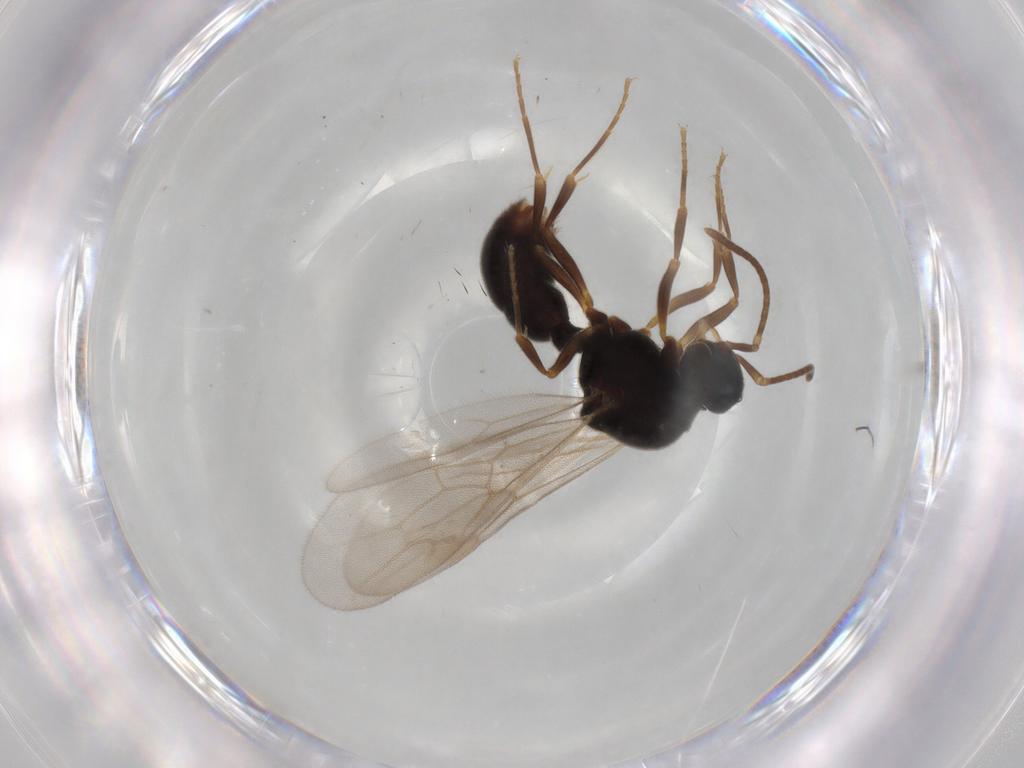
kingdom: Animalia
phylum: Arthropoda
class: Insecta
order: Hymenoptera
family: Formicidae
